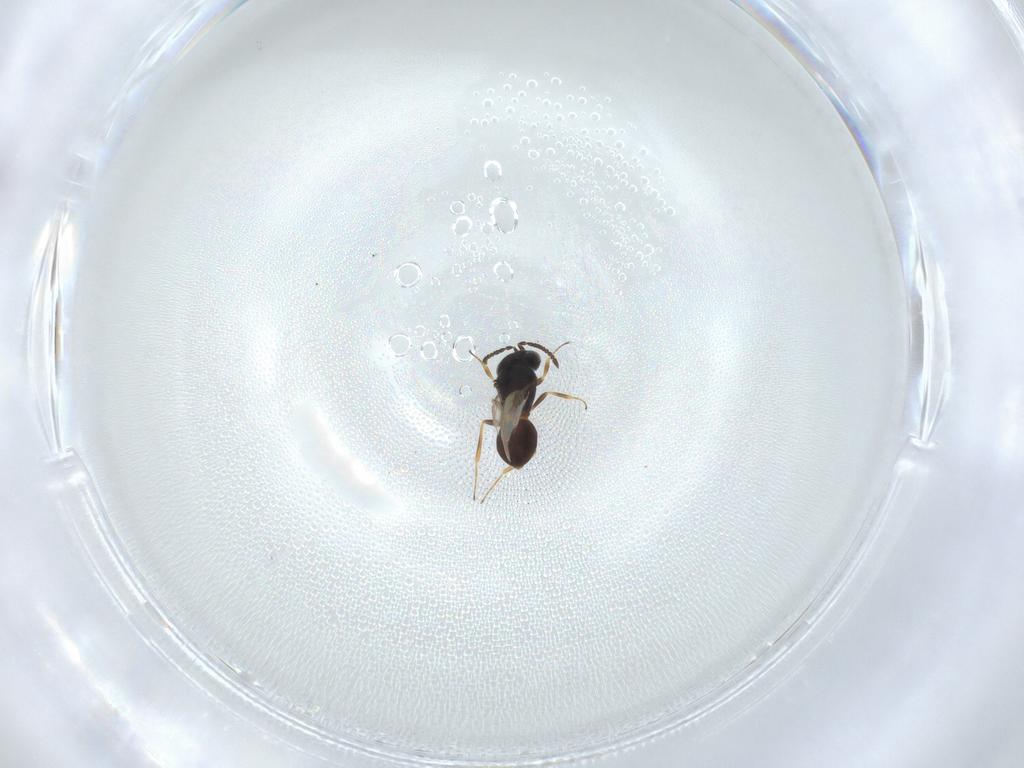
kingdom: Animalia
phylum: Arthropoda
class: Arachnida
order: Araneae
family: Pholcidae
